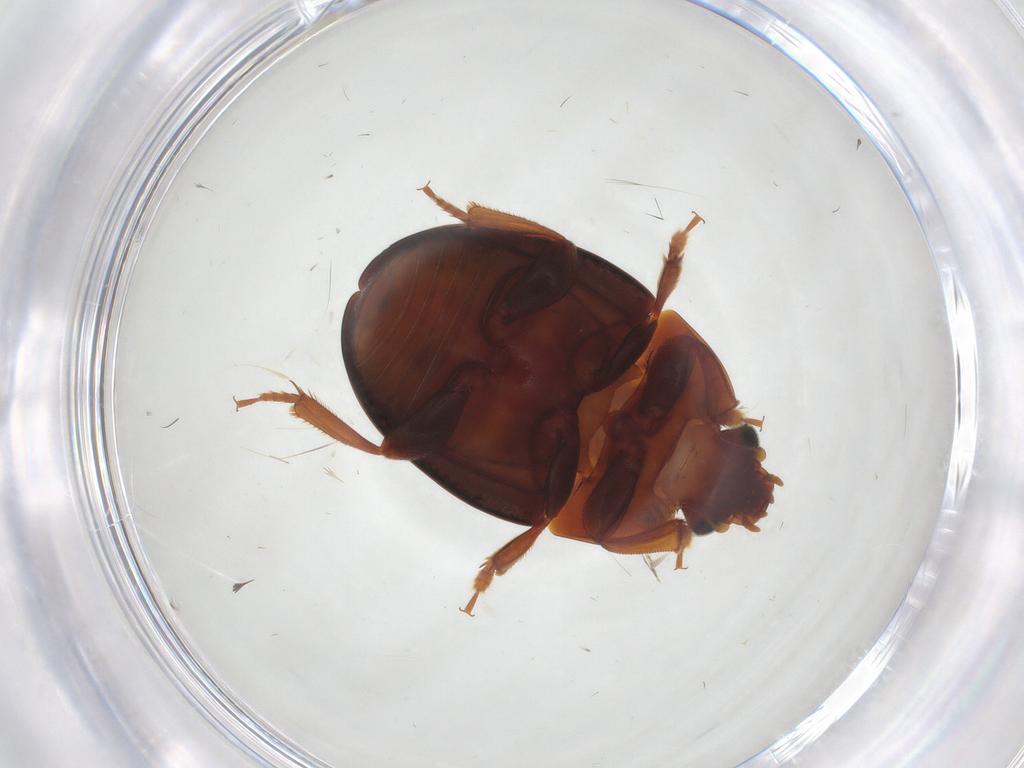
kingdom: Animalia
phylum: Arthropoda
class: Insecta
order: Coleoptera
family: Nitidulidae
